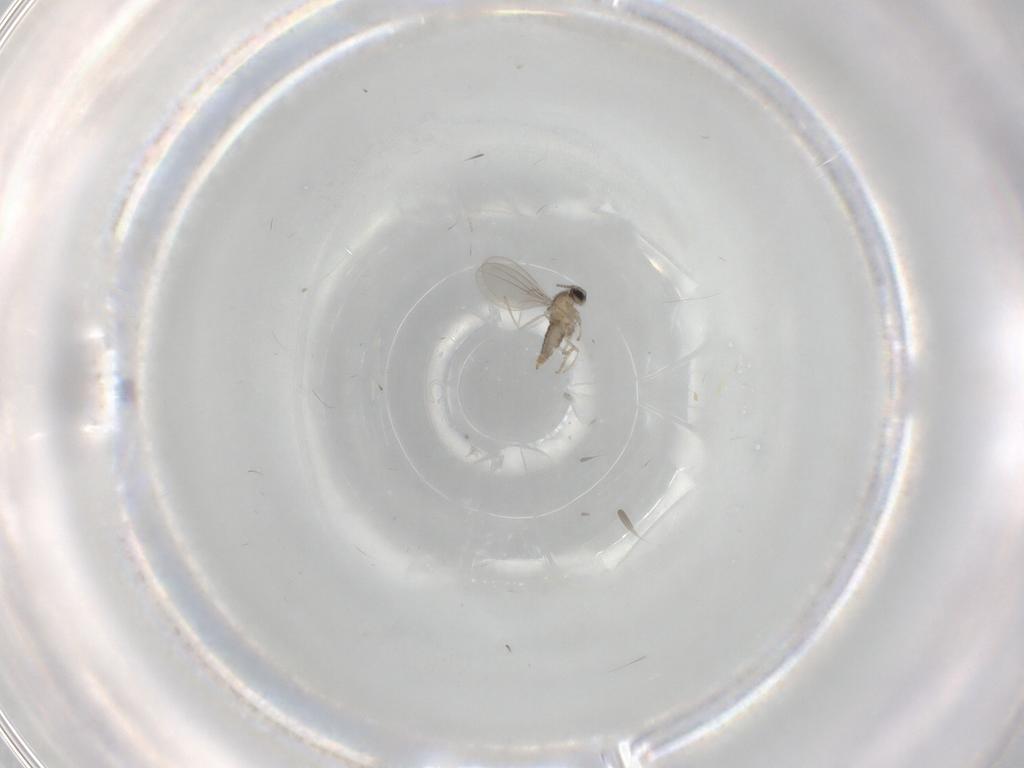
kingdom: Animalia
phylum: Arthropoda
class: Insecta
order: Diptera
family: Cecidomyiidae
